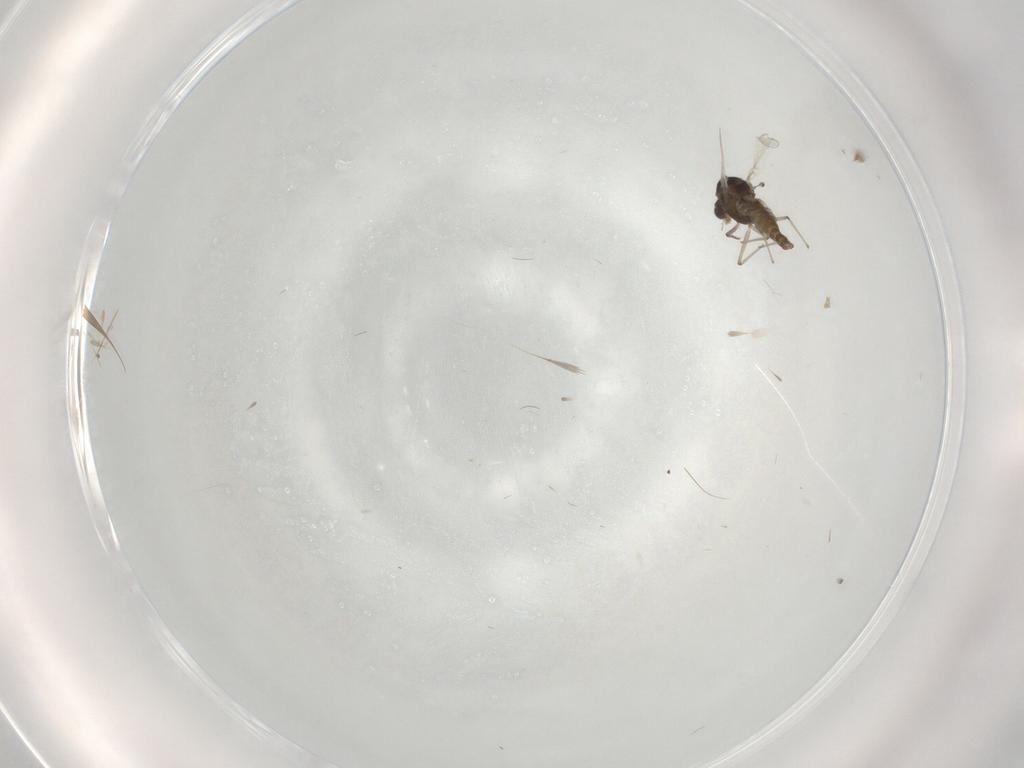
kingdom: Animalia
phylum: Arthropoda
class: Insecta
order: Diptera
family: Chironomidae
